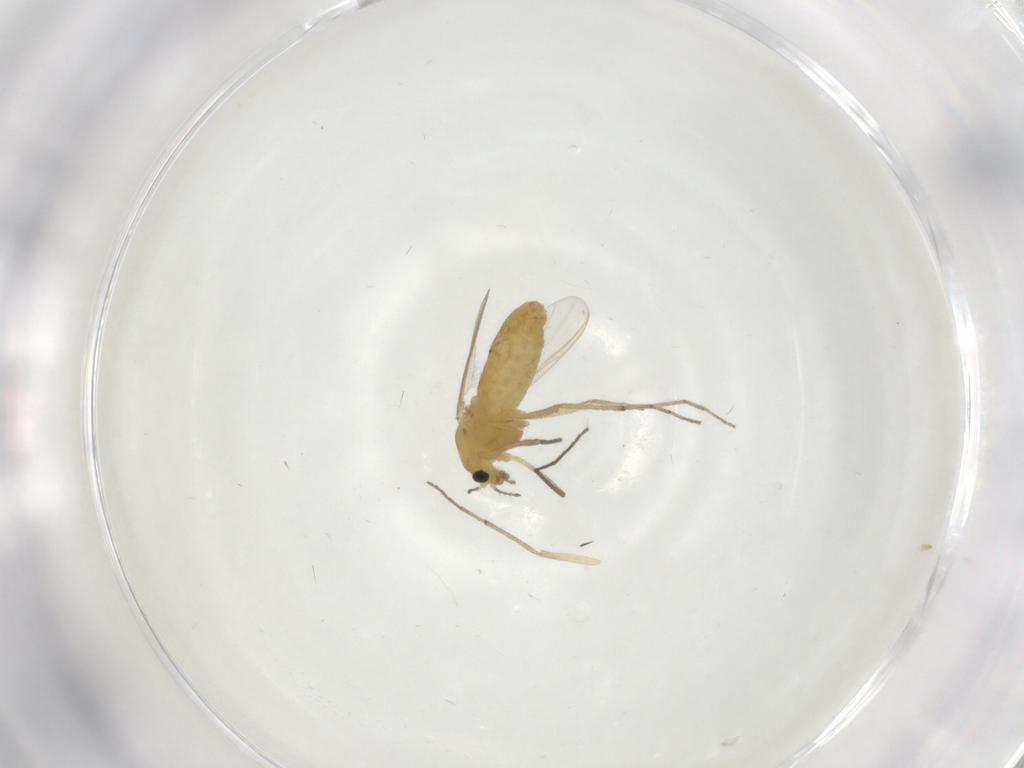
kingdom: Animalia
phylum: Arthropoda
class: Insecta
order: Diptera
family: Chironomidae
